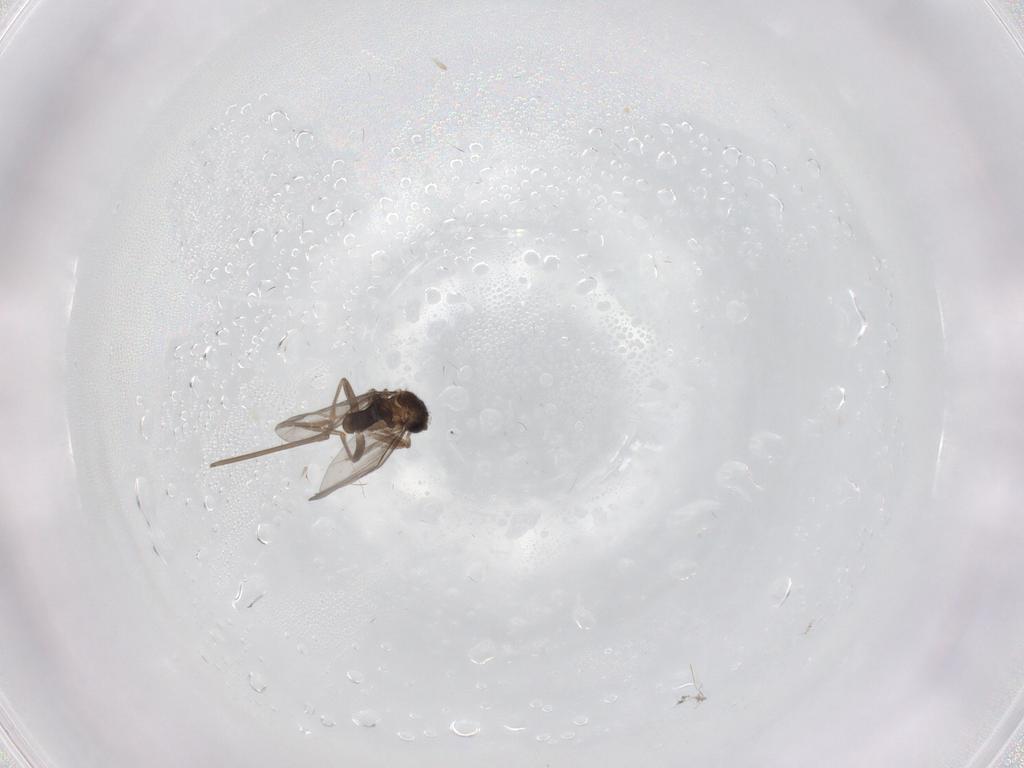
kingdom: Animalia
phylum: Arthropoda
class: Insecta
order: Diptera
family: Cecidomyiidae
